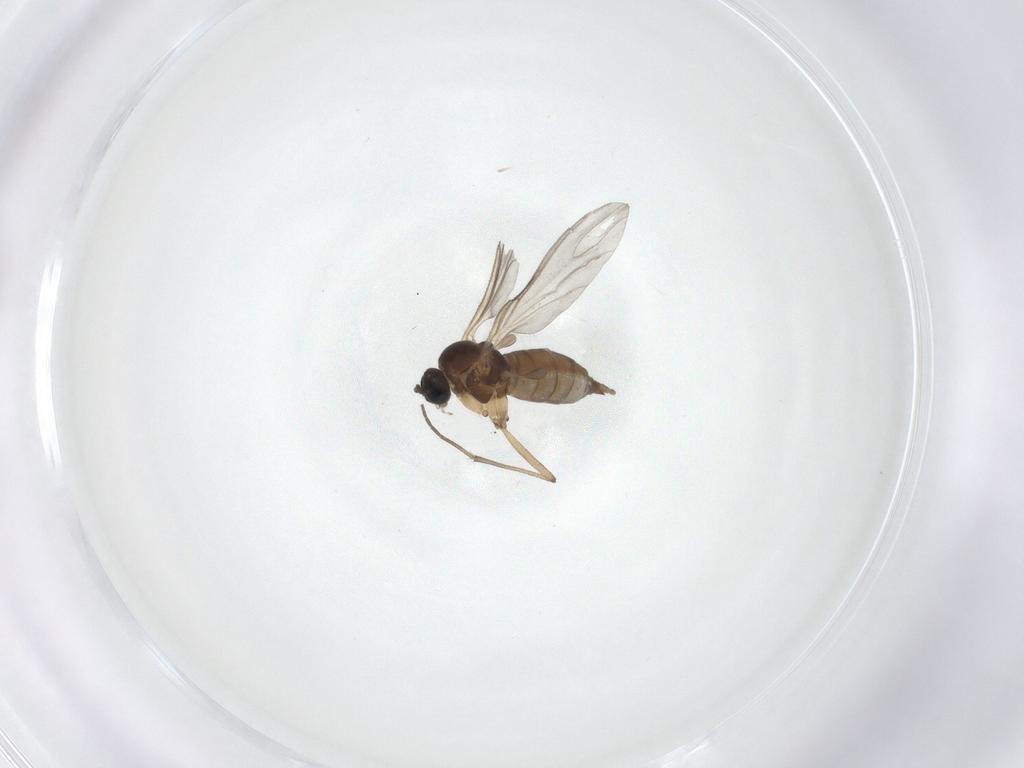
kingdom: Animalia
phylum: Arthropoda
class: Insecta
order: Diptera
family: Sciaridae
